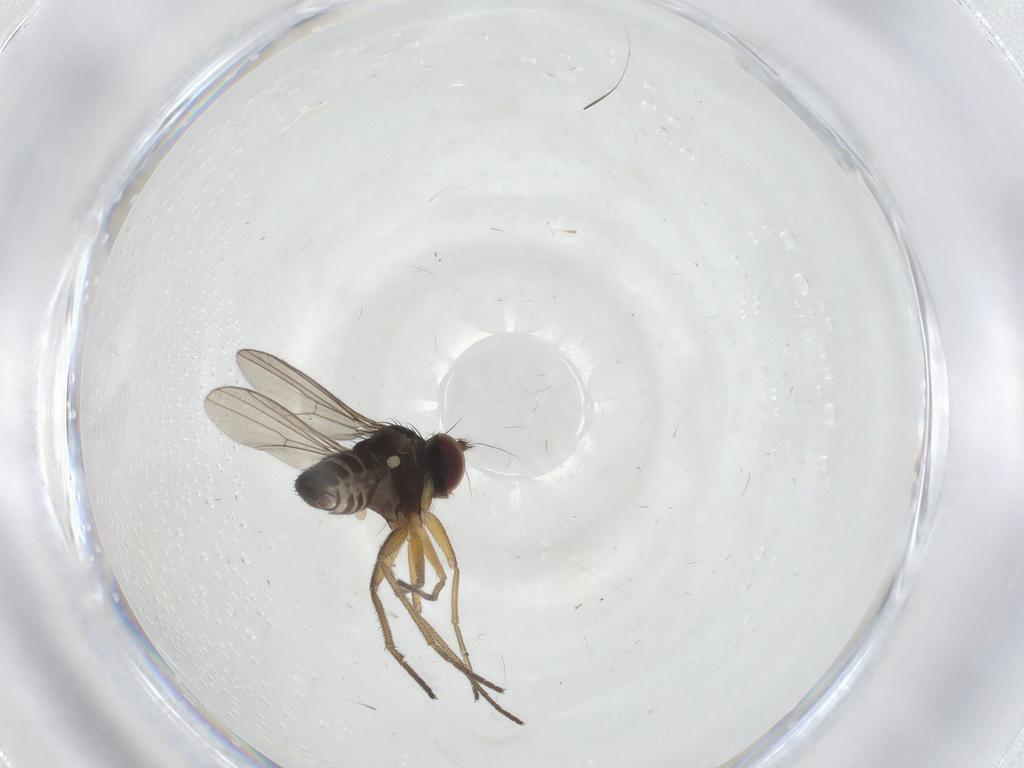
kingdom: Animalia
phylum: Arthropoda
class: Insecta
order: Diptera
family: Dolichopodidae
